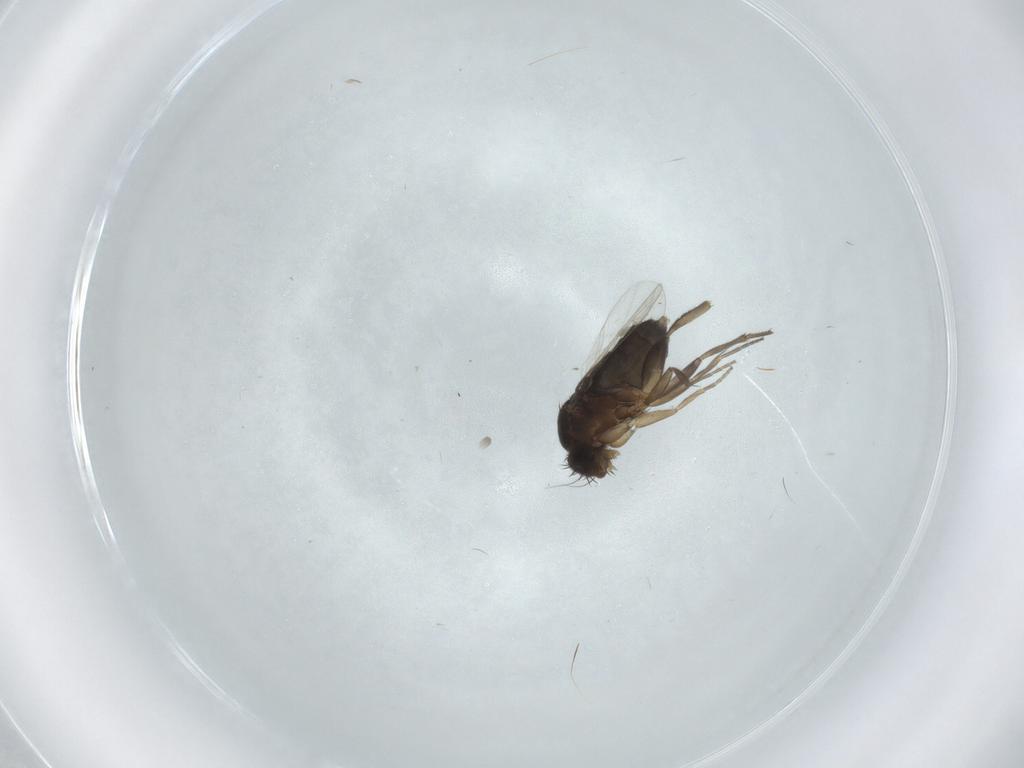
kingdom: Animalia
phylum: Arthropoda
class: Insecta
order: Diptera
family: Phoridae
